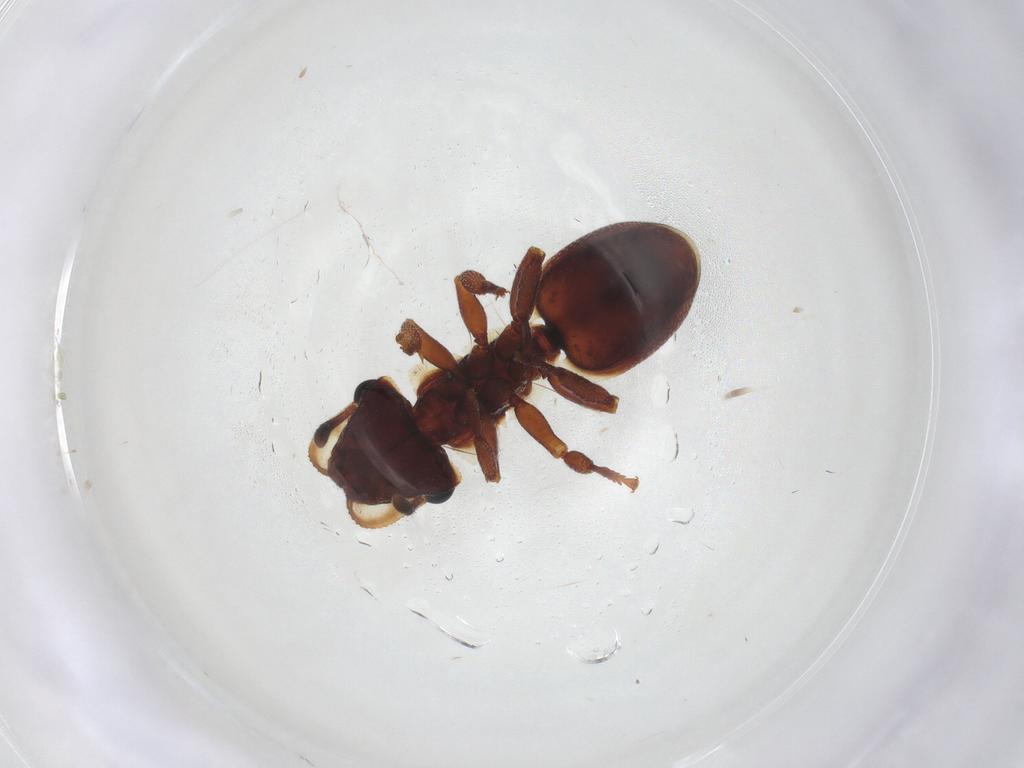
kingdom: Animalia
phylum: Arthropoda
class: Insecta
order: Hymenoptera
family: Formicidae
